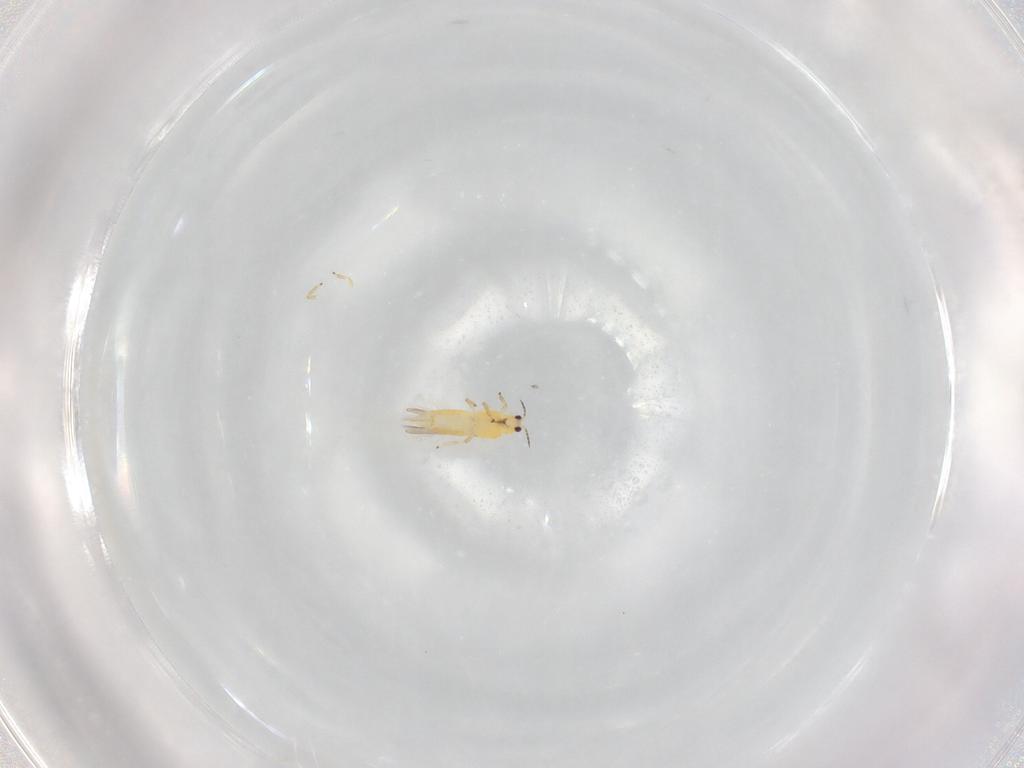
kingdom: Animalia
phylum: Arthropoda
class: Insecta
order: Thysanoptera
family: Thripidae
